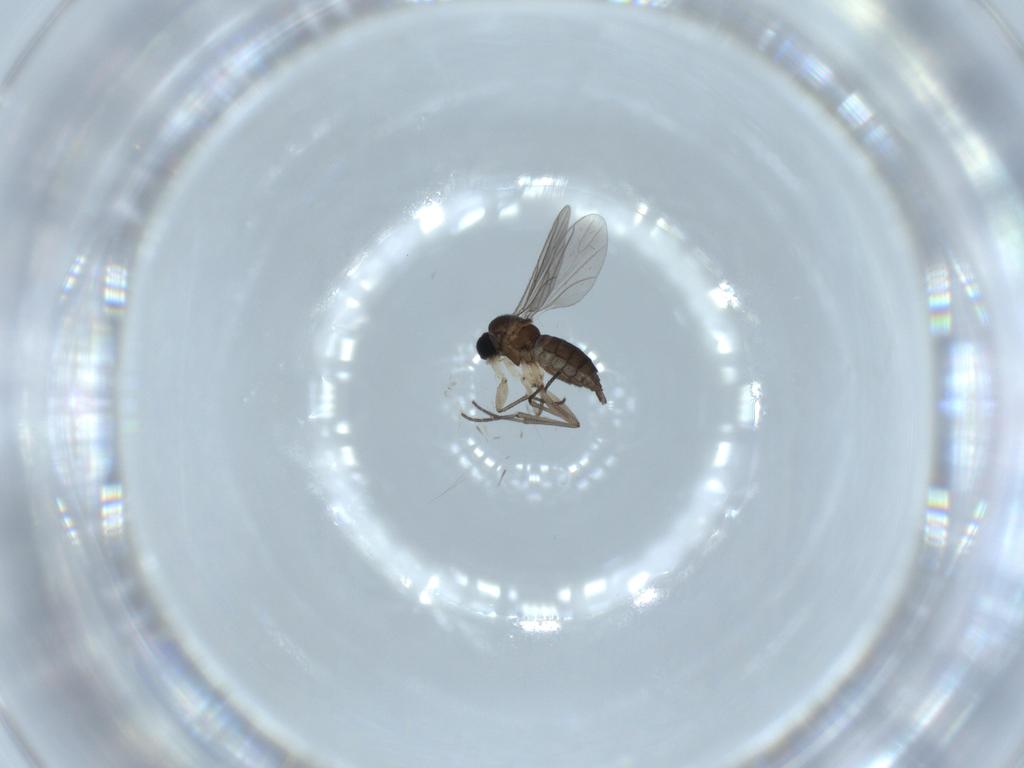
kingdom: Animalia
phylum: Arthropoda
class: Insecta
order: Diptera
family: Sciaridae
